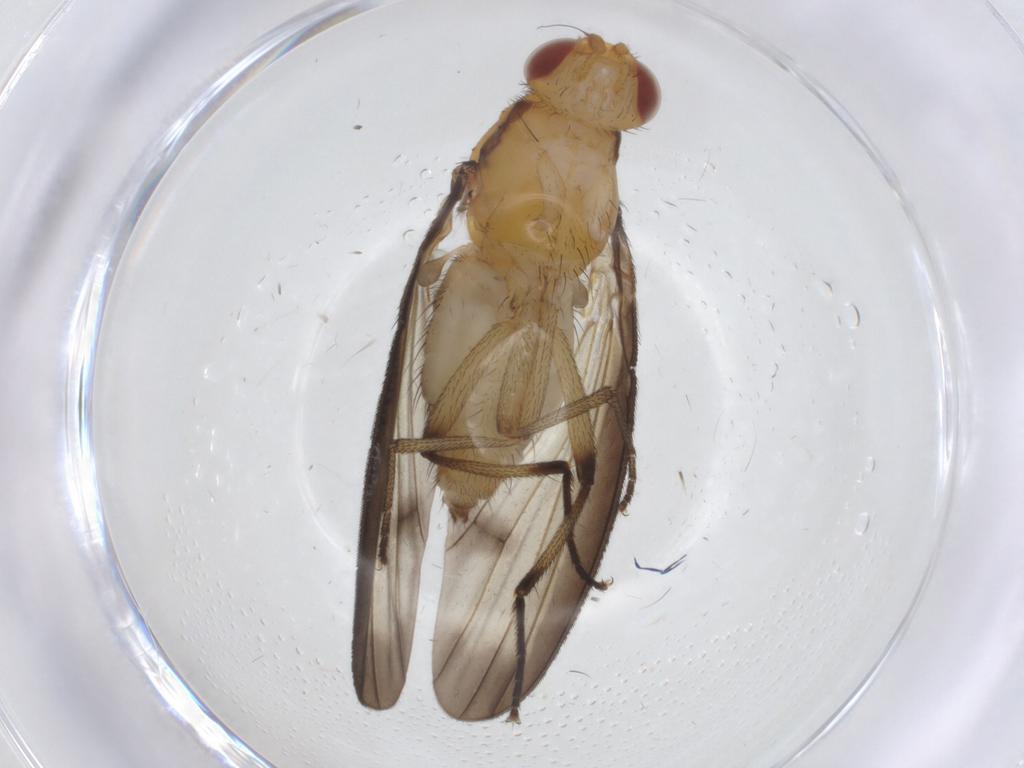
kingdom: Animalia
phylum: Arthropoda
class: Insecta
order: Diptera
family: Heleomyzidae
